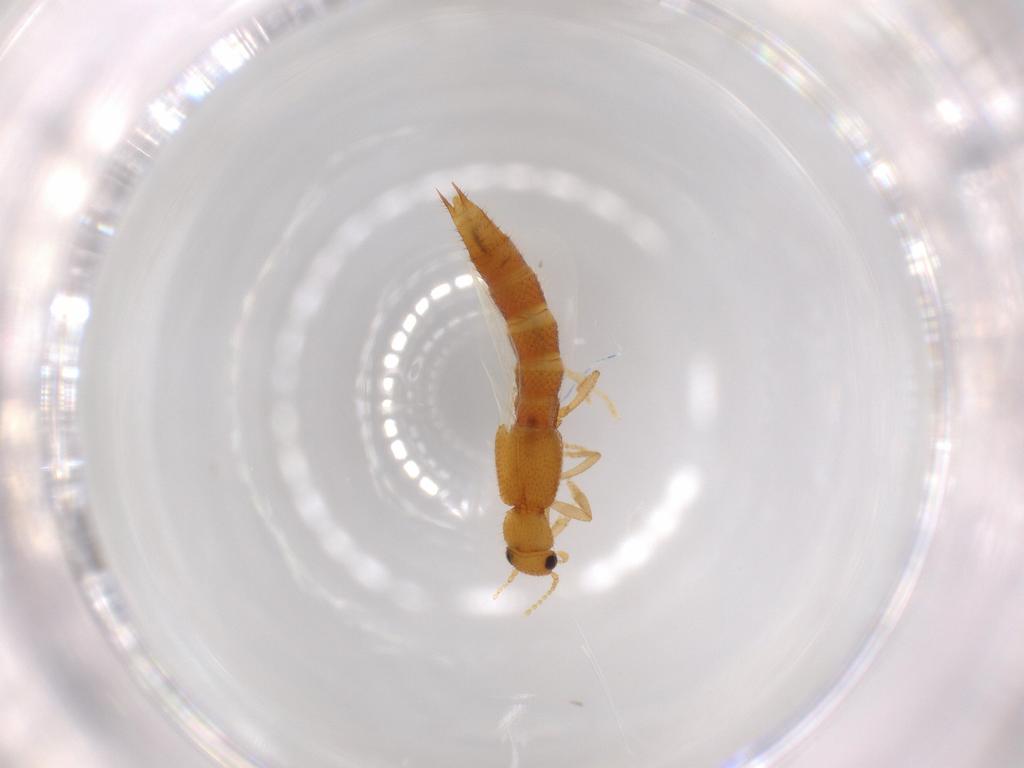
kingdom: Animalia
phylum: Arthropoda
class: Insecta
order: Coleoptera
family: Staphylinidae
